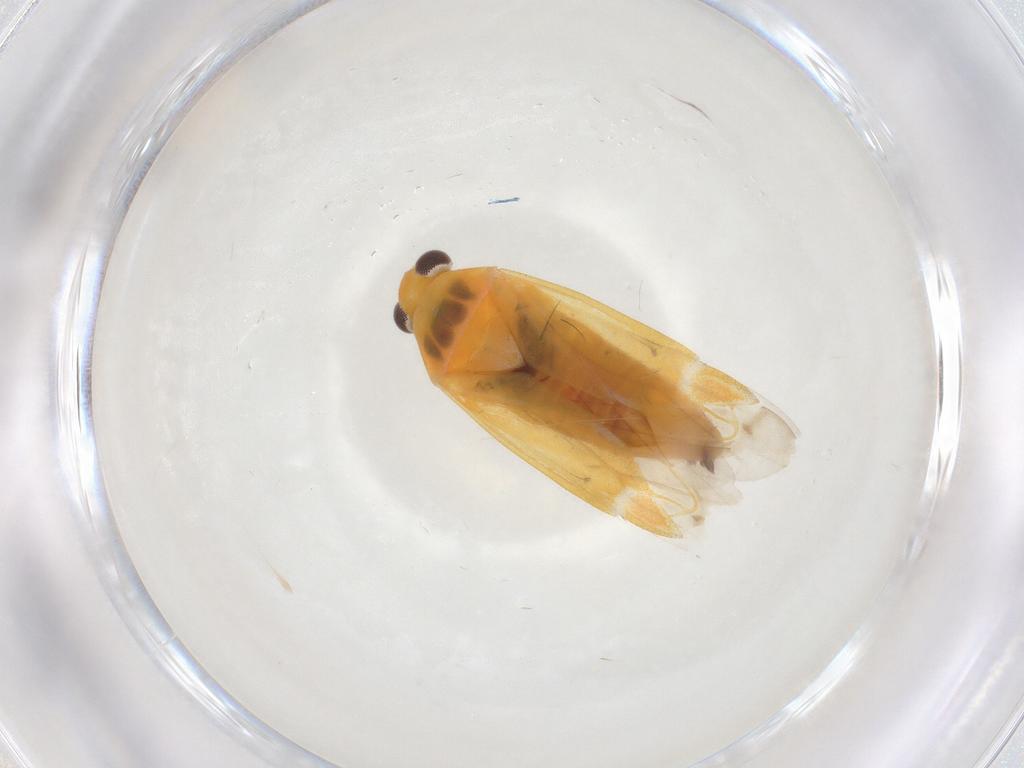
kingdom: Animalia
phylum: Arthropoda
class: Insecta
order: Hemiptera
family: Miridae
